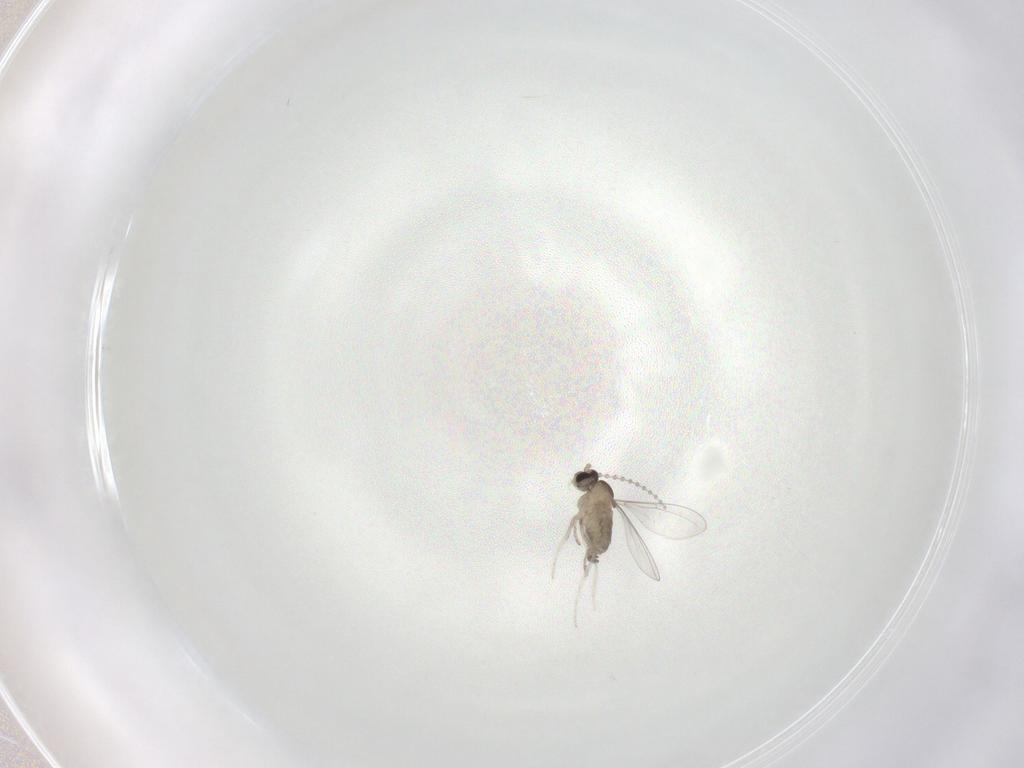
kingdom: Animalia
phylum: Arthropoda
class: Insecta
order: Diptera
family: Cecidomyiidae
